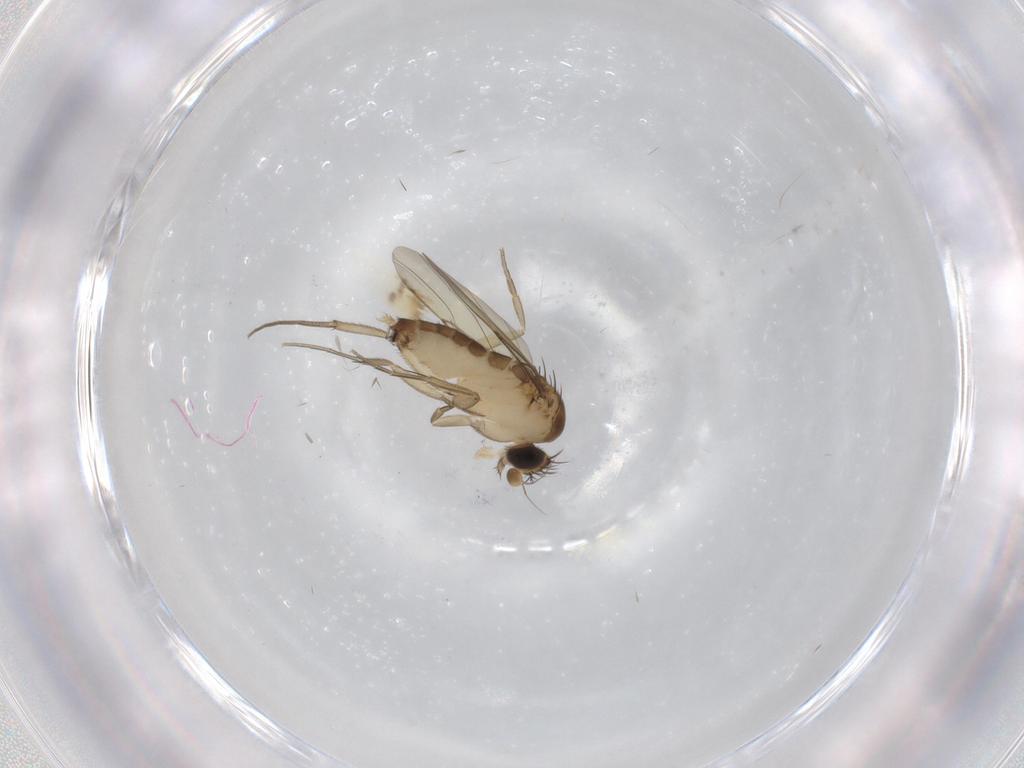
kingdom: Animalia
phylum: Arthropoda
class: Insecta
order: Diptera
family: Phoridae
